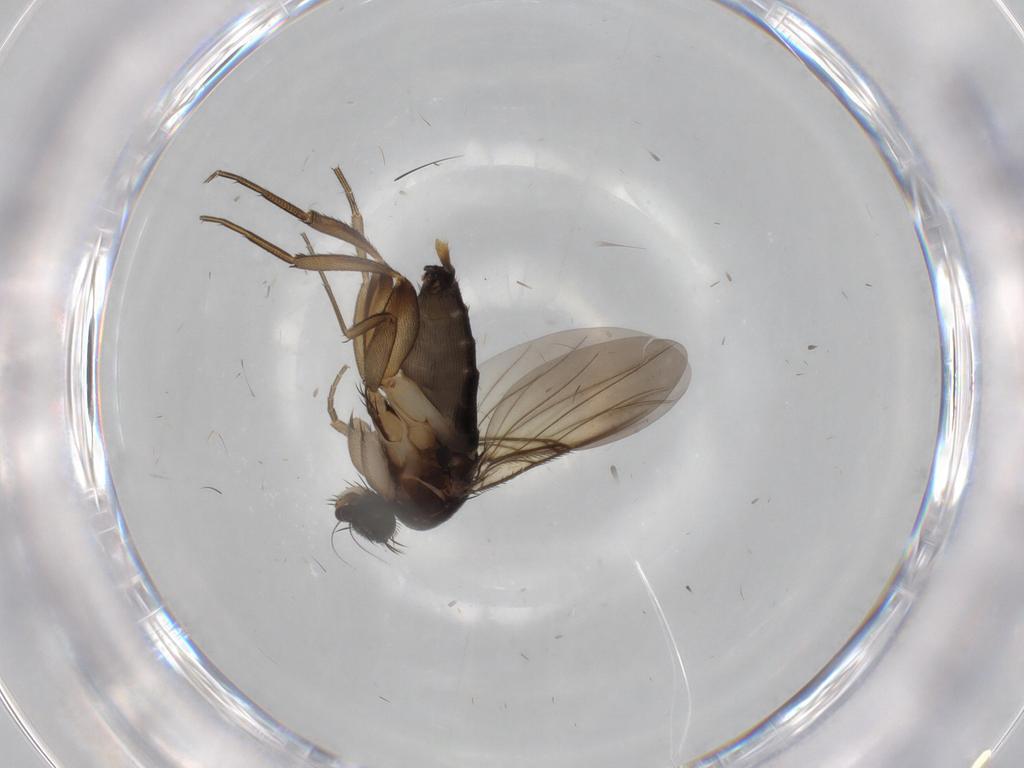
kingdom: Animalia
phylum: Arthropoda
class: Insecta
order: Diptera
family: Phoridae
